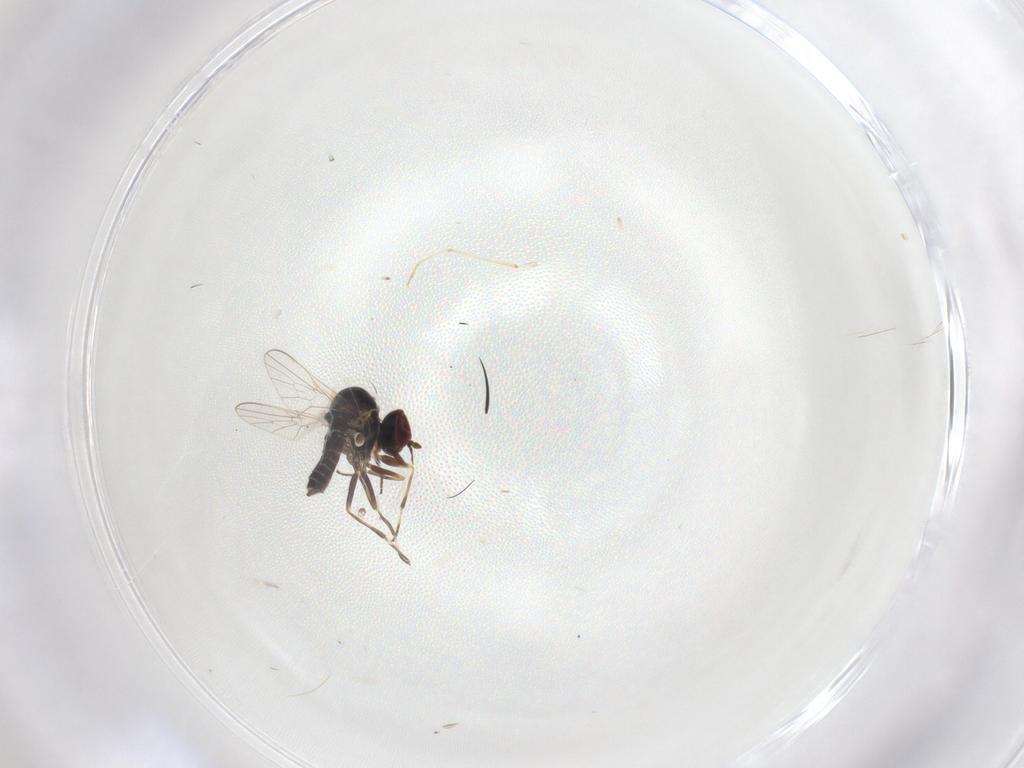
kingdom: Animalia
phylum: Arthropoda
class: Insecta
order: Diptera
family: Bombyliidae
